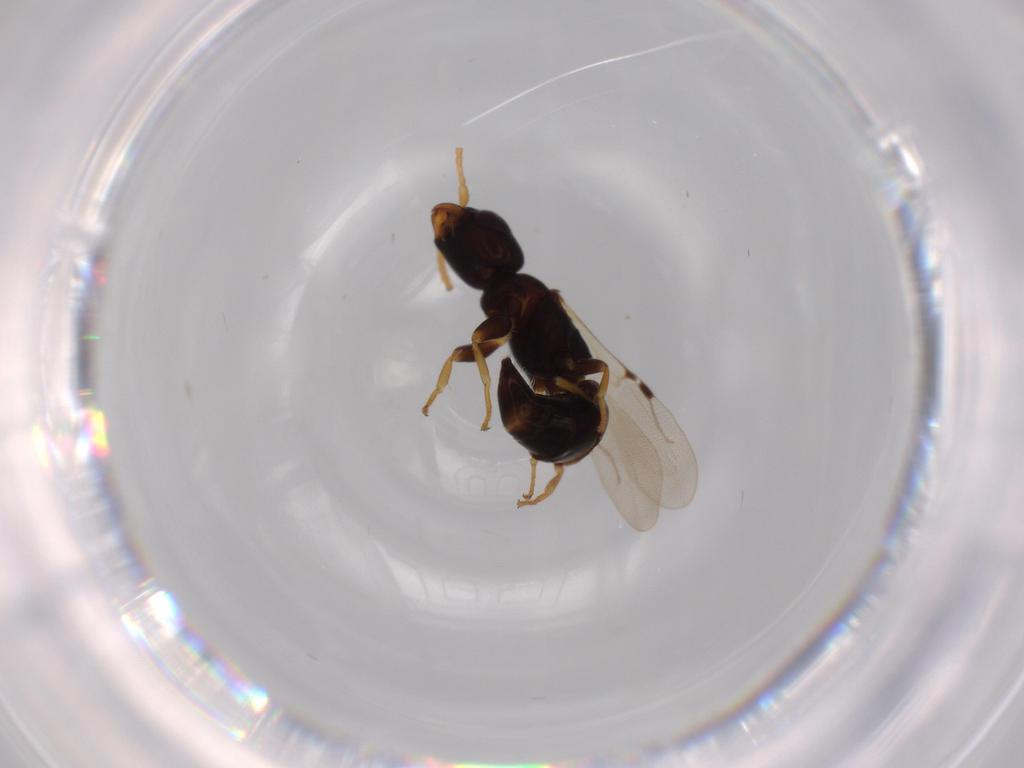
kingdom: Animalia
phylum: Arthropoda
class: Insecta
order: Hymenoptera
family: Bethylidae
